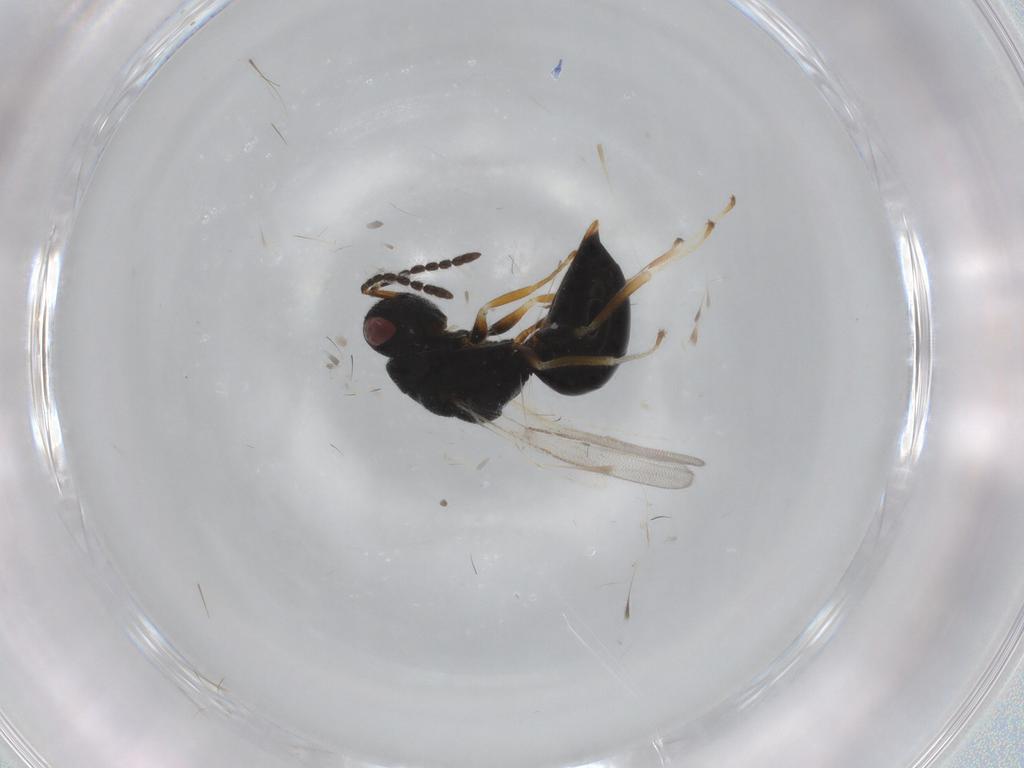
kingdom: Animalia
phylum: Arthropoda
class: Insecta
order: Hymenoptera
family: Eurytomidae
